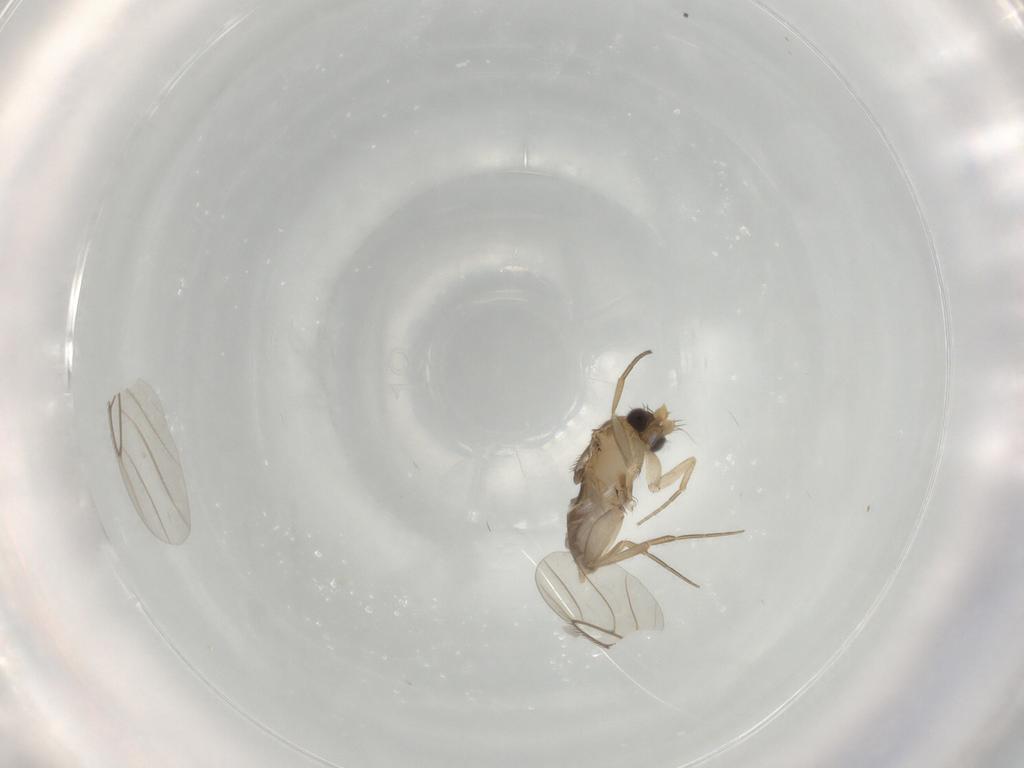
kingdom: Animalia
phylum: Arthropoda
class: Insecta
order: Diptera
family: Phoridae
